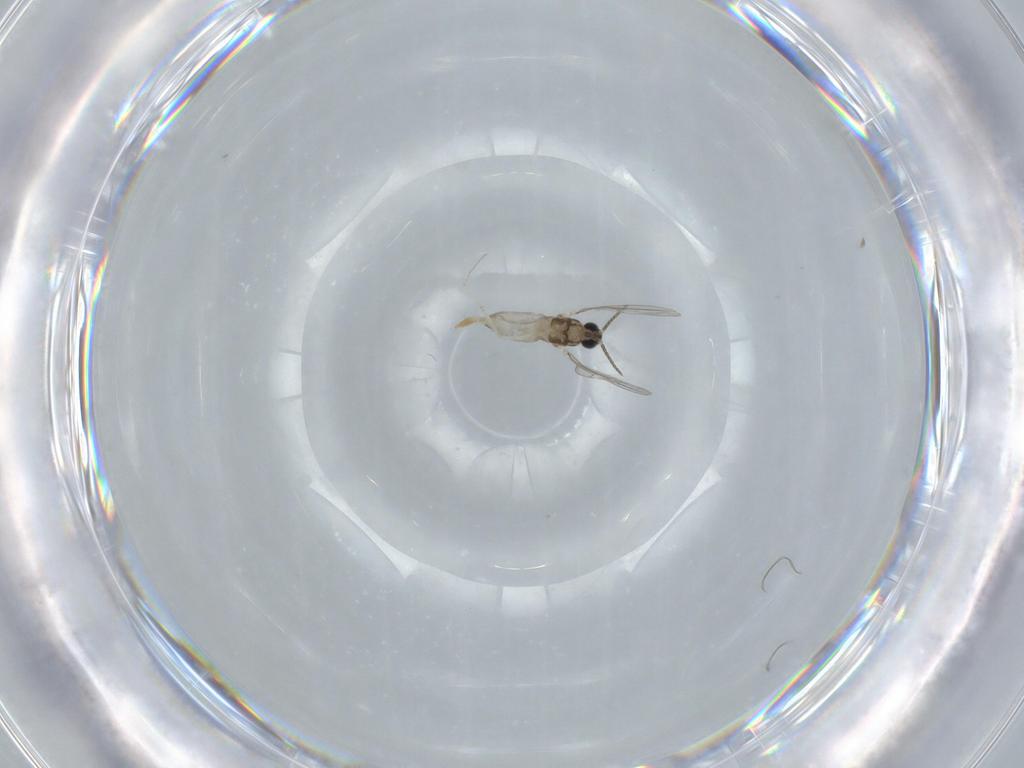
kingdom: Animalia
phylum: Arthropoda
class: Insecta
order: Diptera
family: Cecidomyiidae
